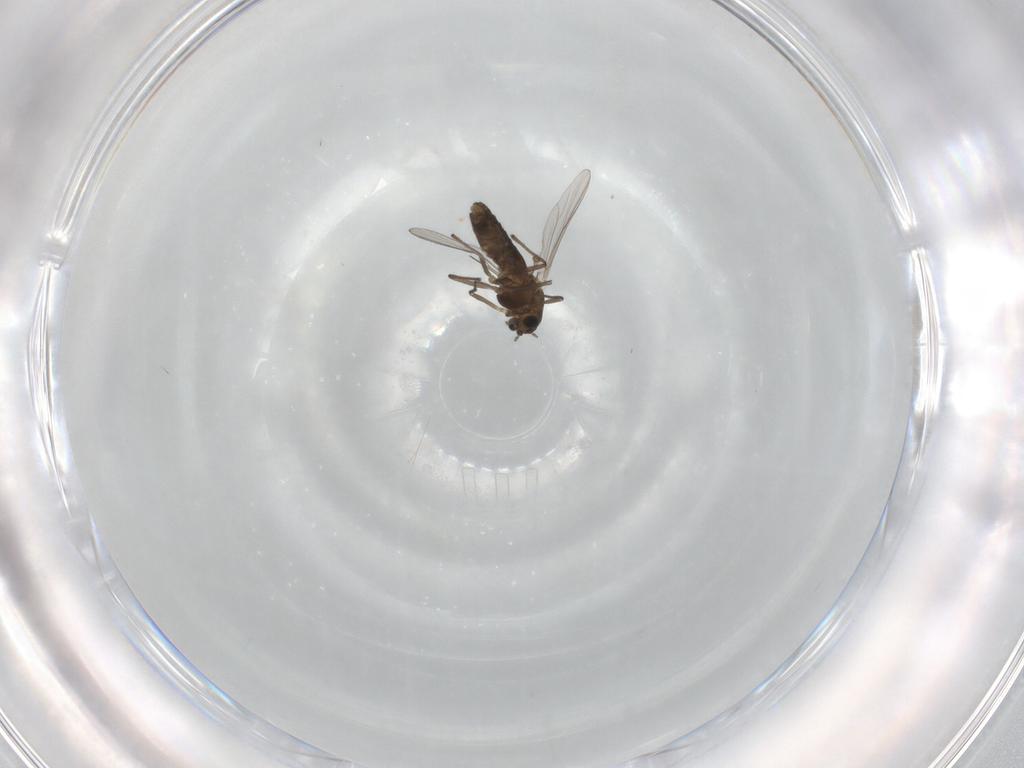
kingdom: Animalia
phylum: Arthropoda
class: Insecta
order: Diptera
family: Chironomidae
